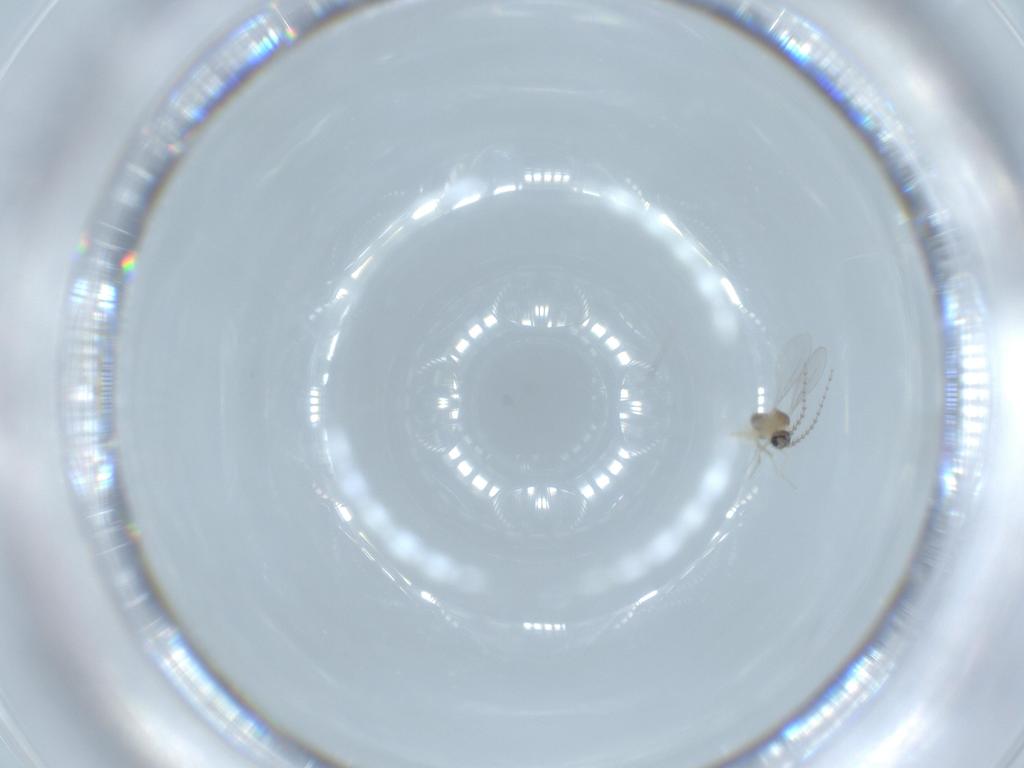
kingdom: Animalia
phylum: Arthropoda
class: Insecta
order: Diptera
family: Sciaridae
